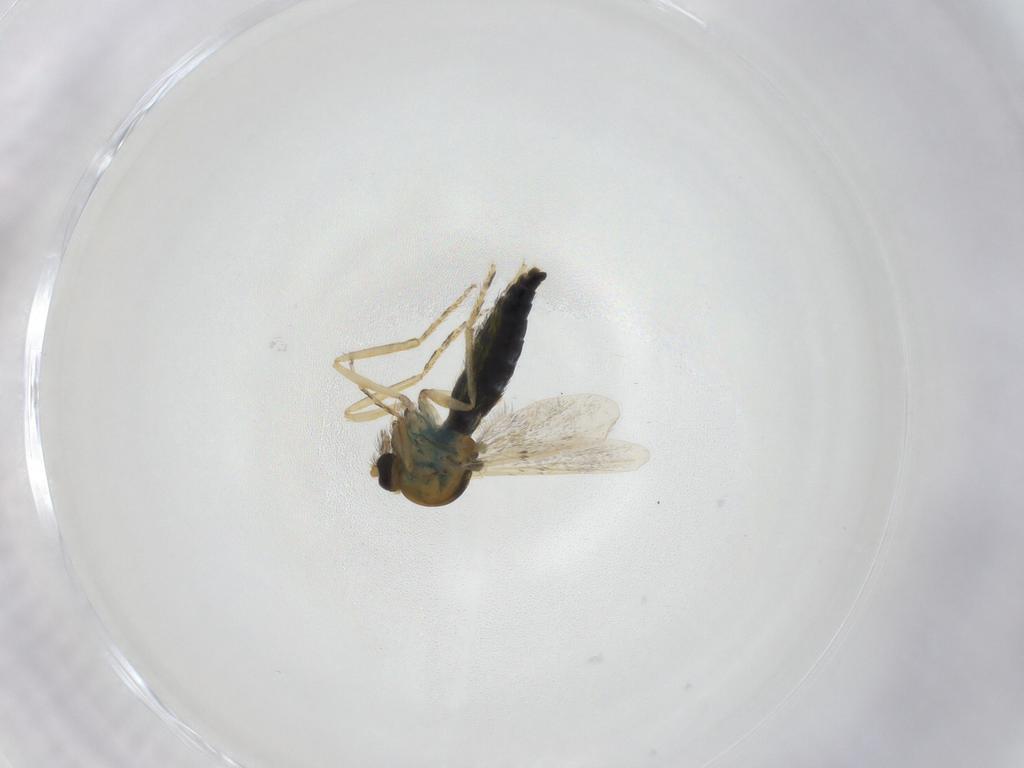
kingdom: Animalia
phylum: Arthropoda
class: Insecta
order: Diptera
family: Ceratopogonidae
